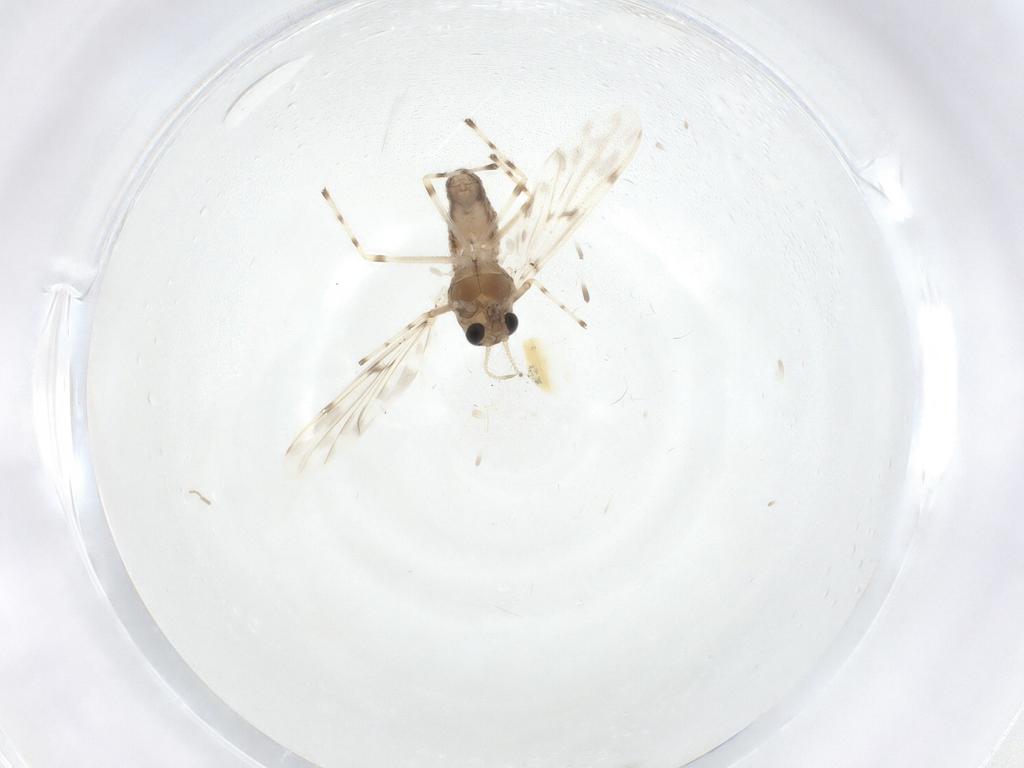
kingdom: Animalia
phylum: Arthropoda
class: Insecta
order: Diptera
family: Chironomidae
